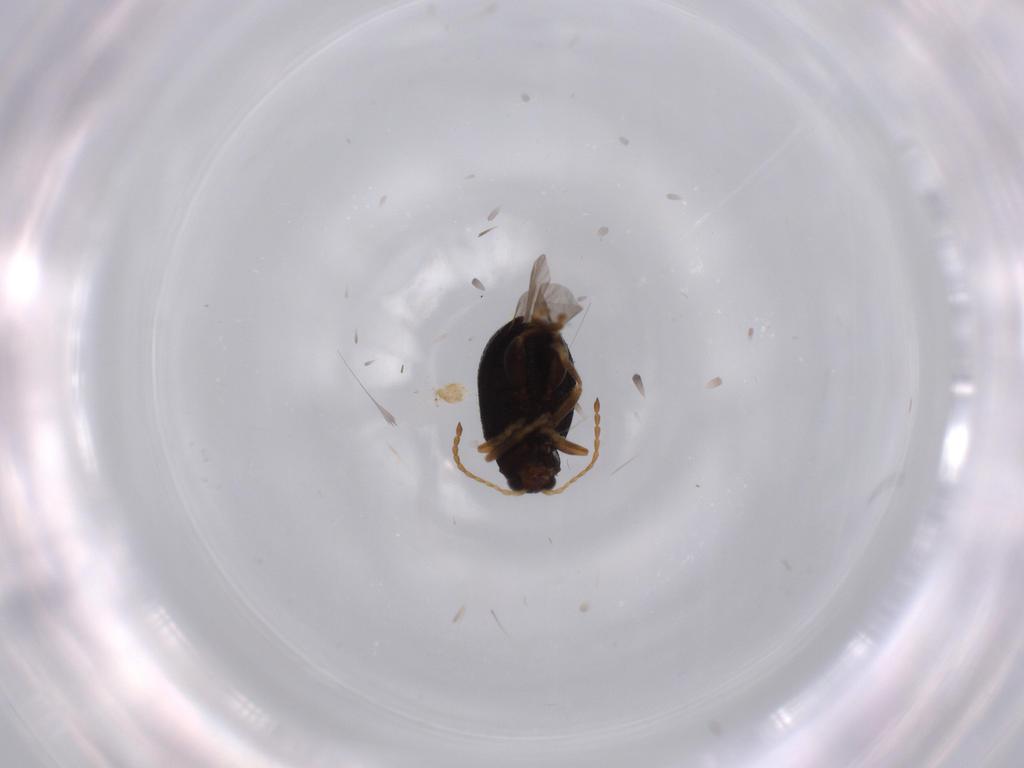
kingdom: Animalia
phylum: Arthropoda
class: Insecta
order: Coleoptera
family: Chrysomelidae
